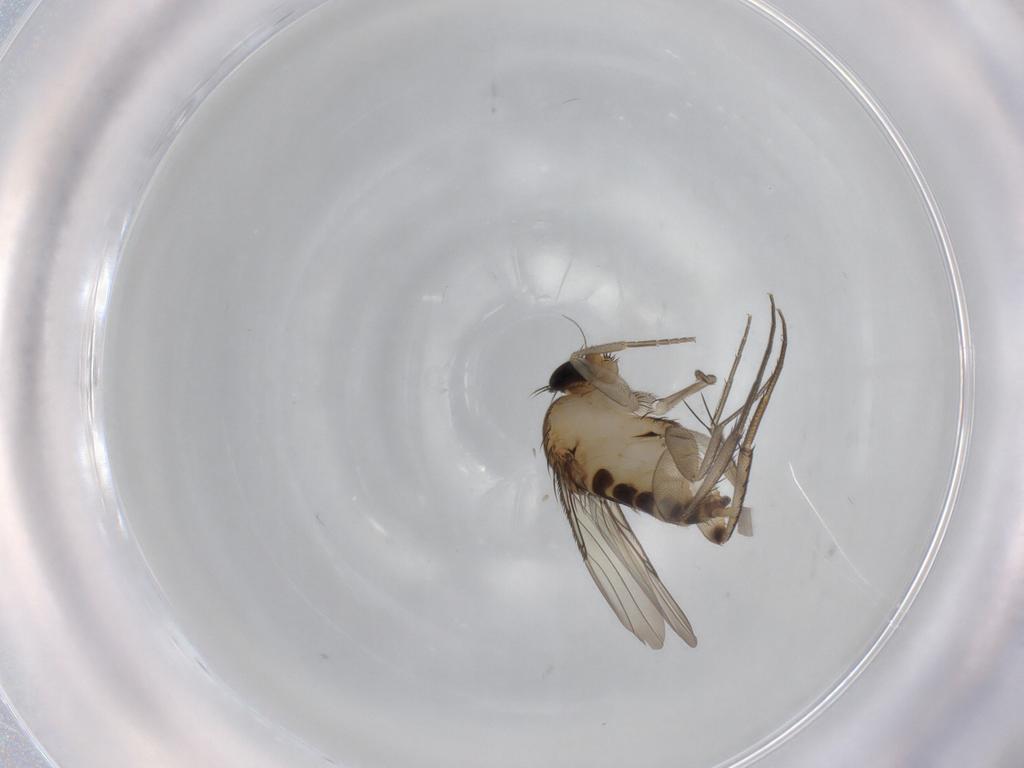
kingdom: Animalia
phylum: Arthropoda
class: Insecta
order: Diptera
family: Phoridae
